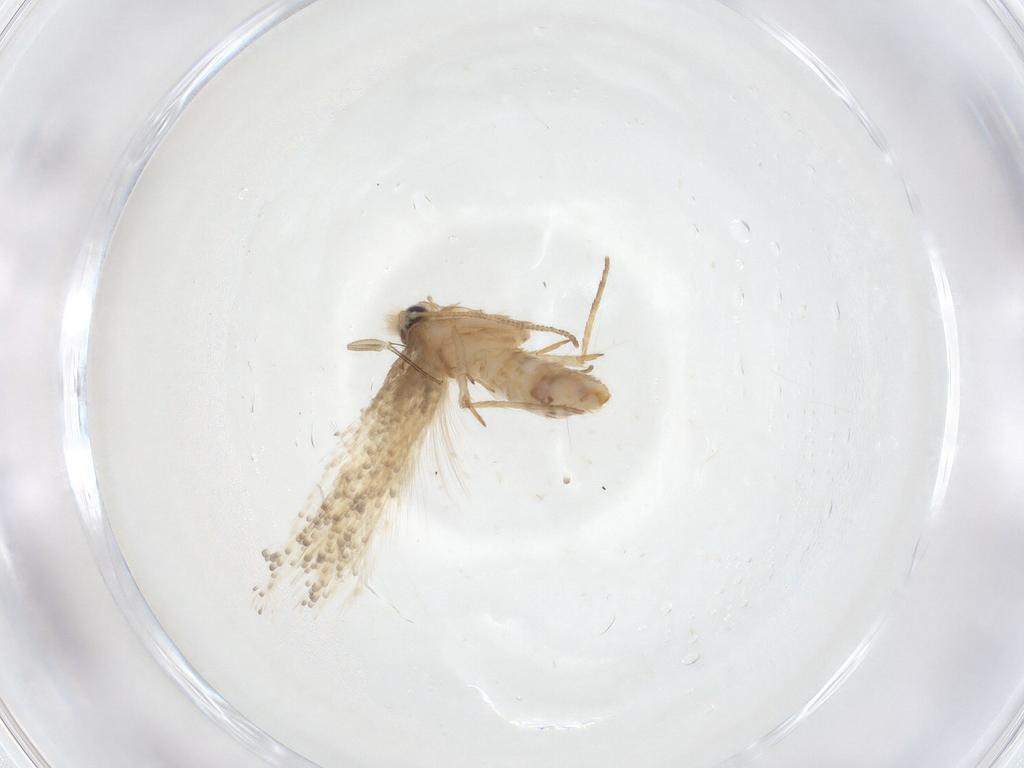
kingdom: Animalia
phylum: Arthropoda
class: Insecta
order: Lepidoptera
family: Nepticulidae
